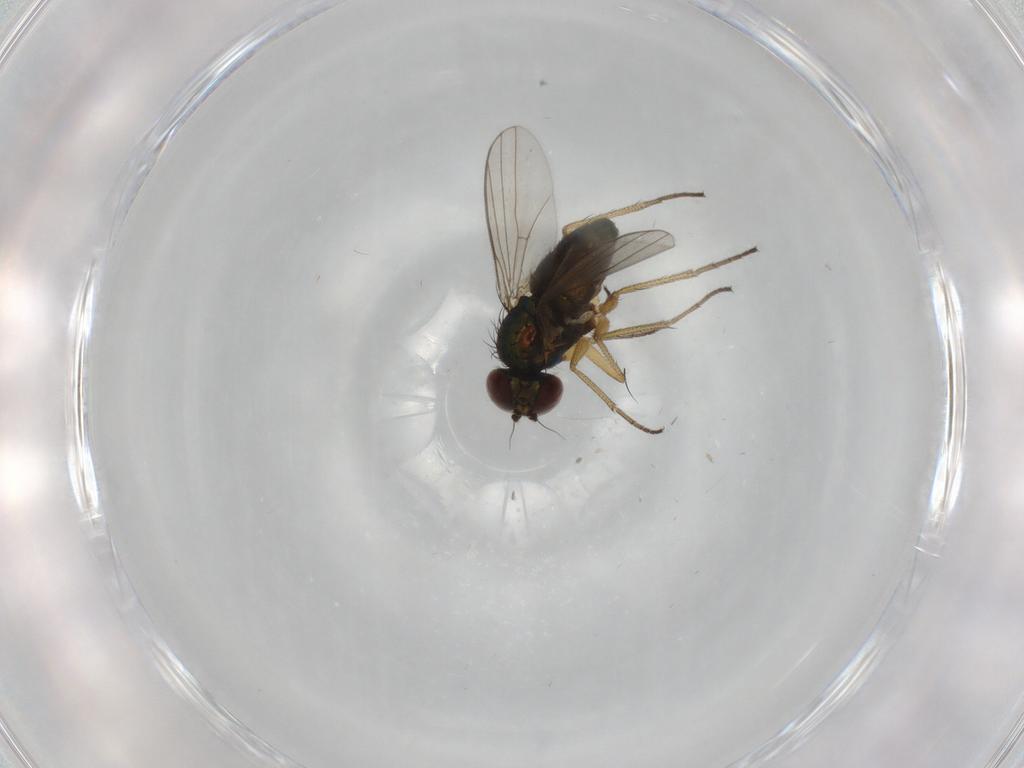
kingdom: Animalia
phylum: Arthropoda
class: Insecta
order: Diptera
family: Dolichopodidae
